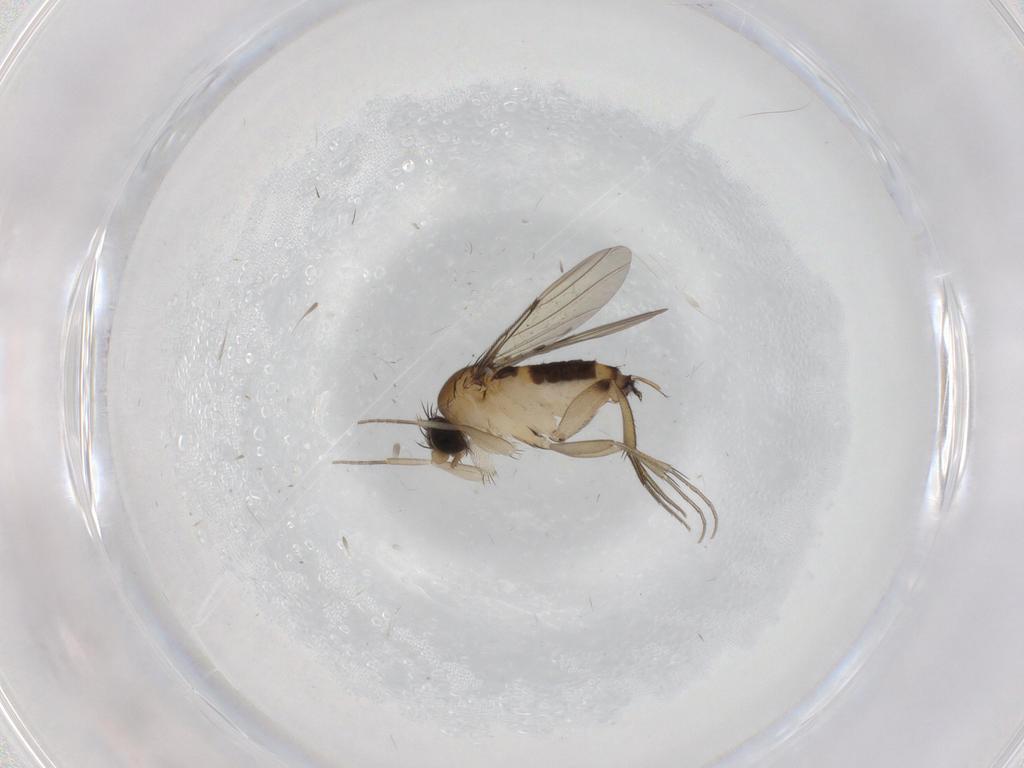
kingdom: Animalia
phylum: Arthropoda
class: Insecta
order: Diptera
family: Phoridae
